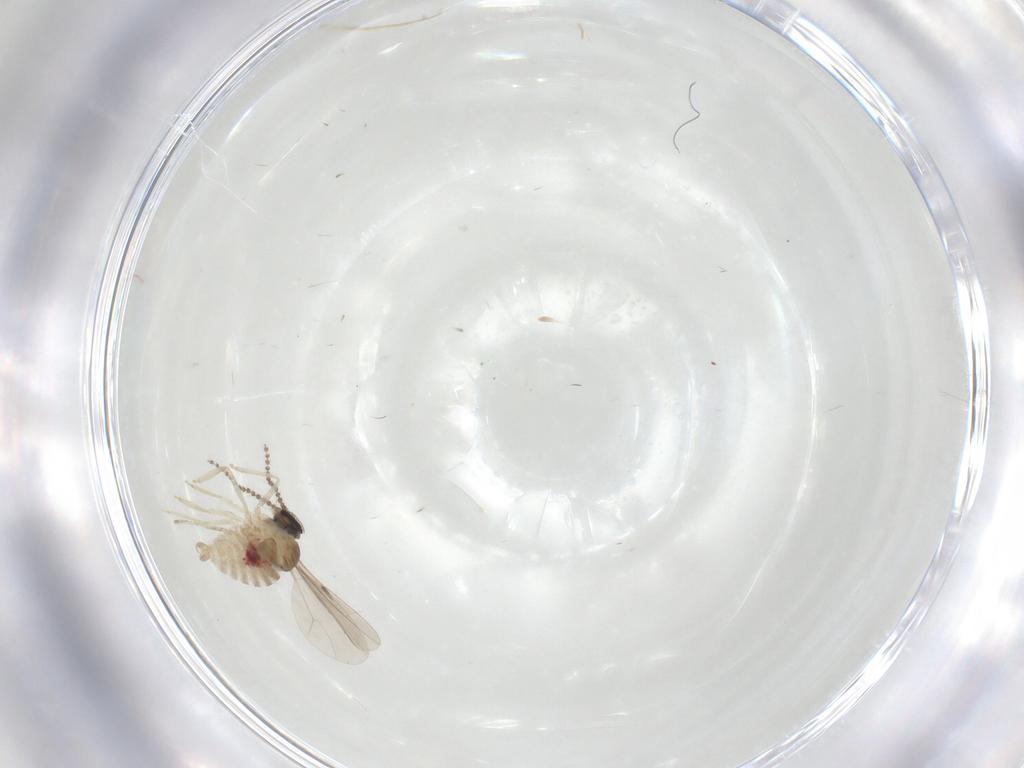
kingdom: Animalia
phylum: Arthropoda
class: Insecta
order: Diptera
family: Cecidomyiidae
